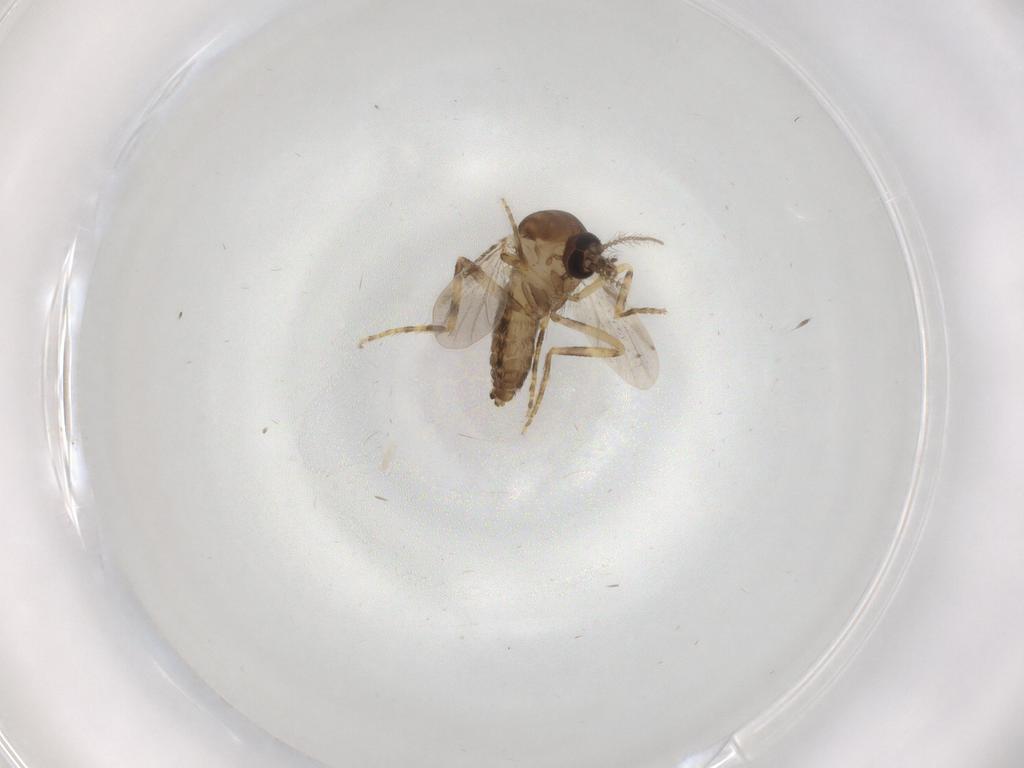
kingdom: Animalia
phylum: Arthropoda
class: Insecta
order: Diptera
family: Ceratopogonidae
